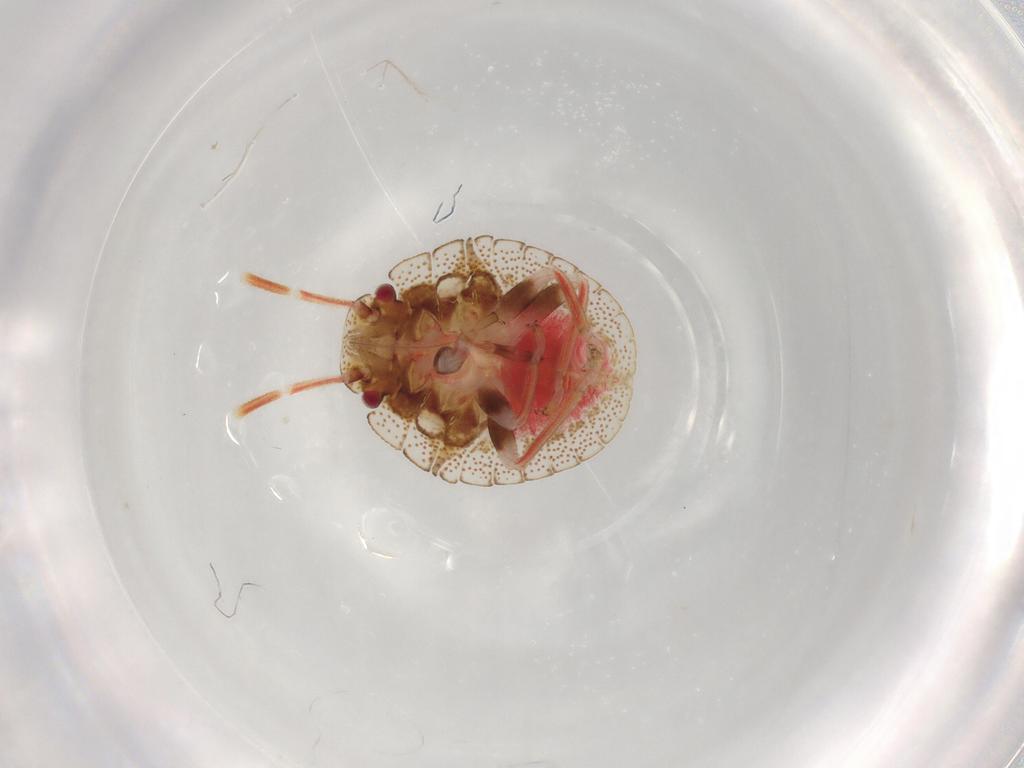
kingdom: Animalia
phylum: Arthropoda
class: Insecta
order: Hemiptera
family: Pentatomidae
